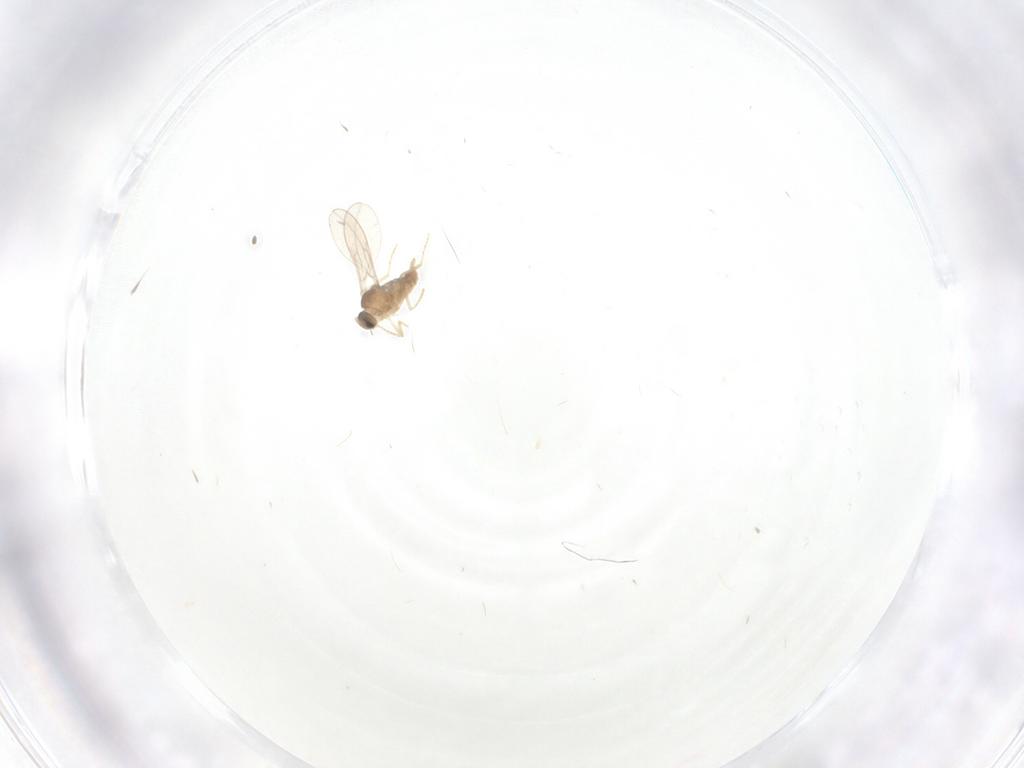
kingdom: Animalia
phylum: Arthropoda
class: Insecta
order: Diptera
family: Cecidomyiidae
